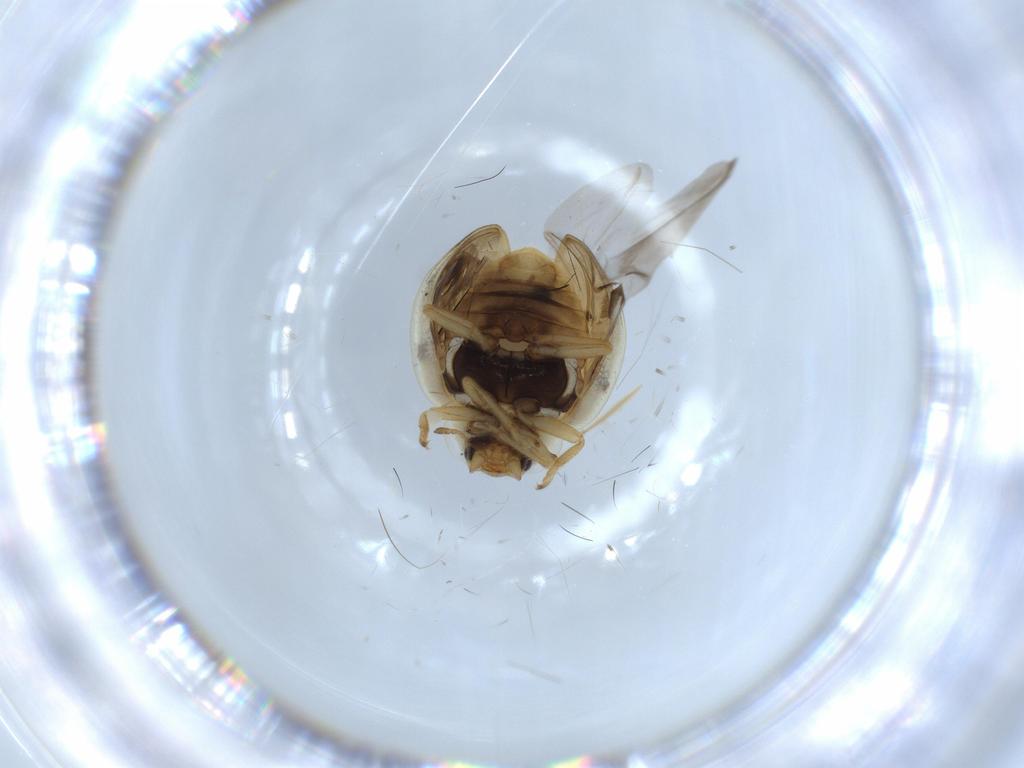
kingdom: Animalia
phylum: Arthropoda
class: Insecta
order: Coleoptera
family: Coccinellidae
